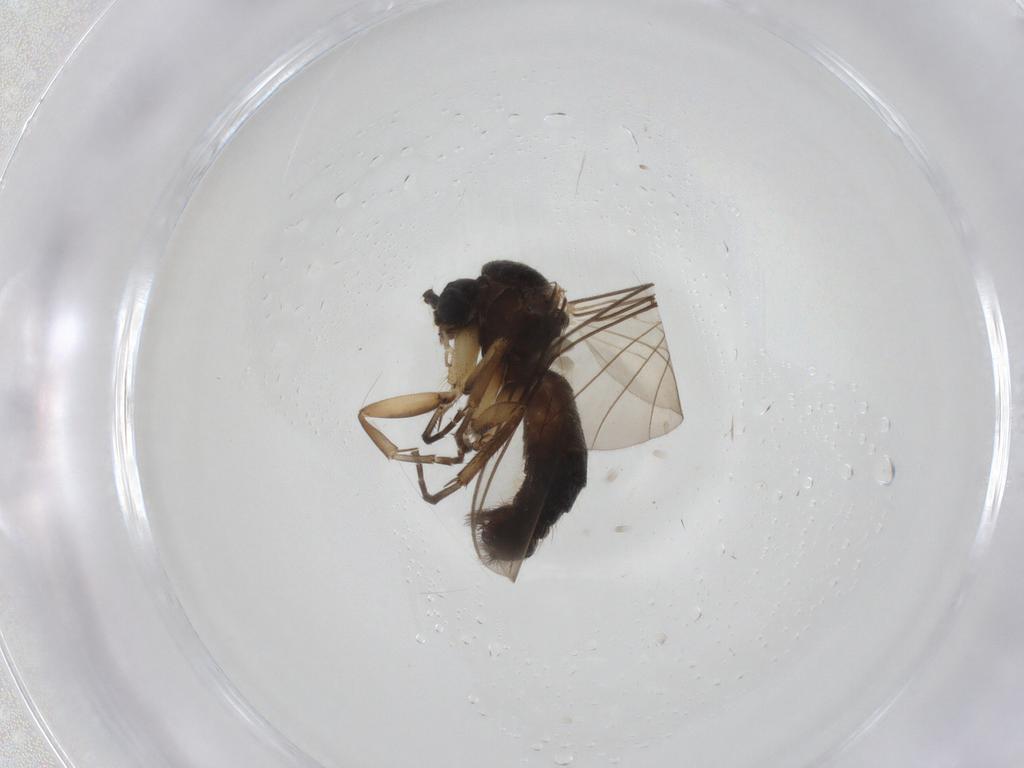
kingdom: Animalia
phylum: Arthropoda
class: Insecta
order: Diptera
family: Mycetophilidae
